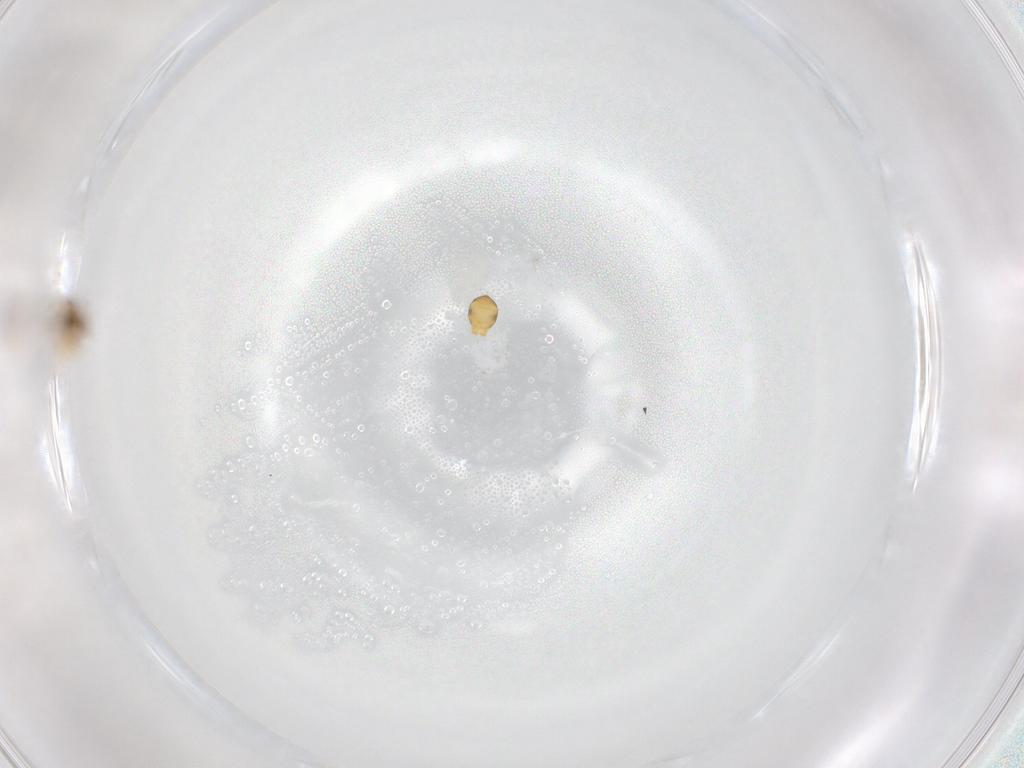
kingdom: Animalia
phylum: Arthropoda
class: Insecta
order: Hymenoptera
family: Scelionidae
